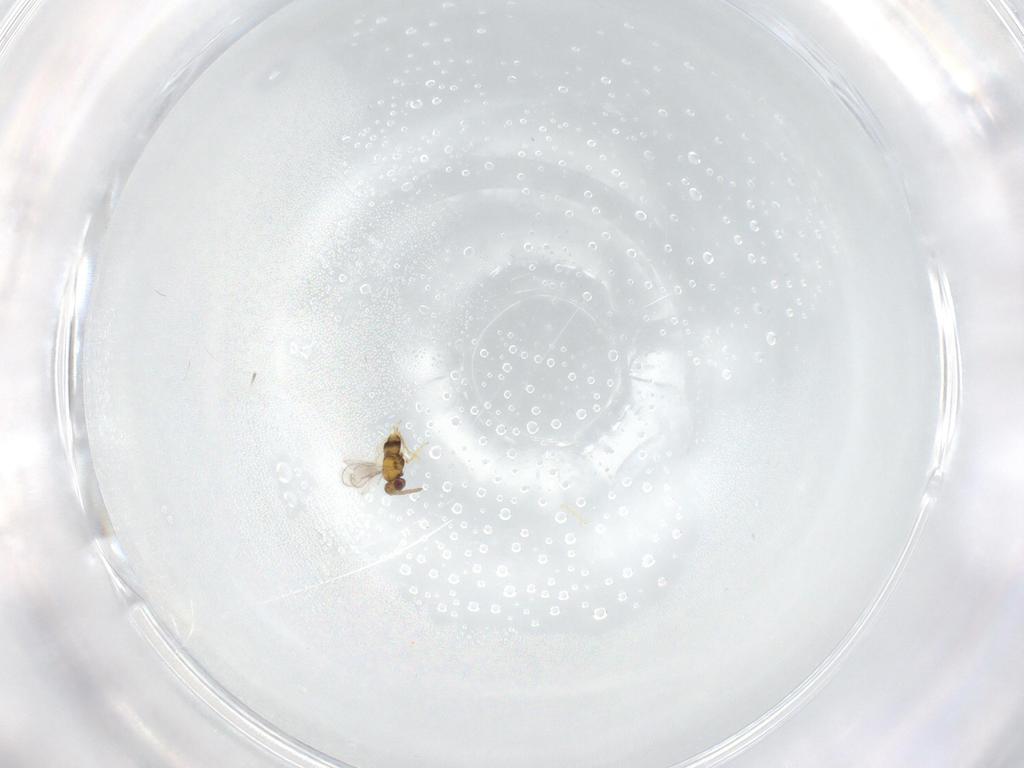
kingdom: Animalia
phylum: Arthropoda
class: Insecta
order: Hymenoptera
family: Aphelinidae
